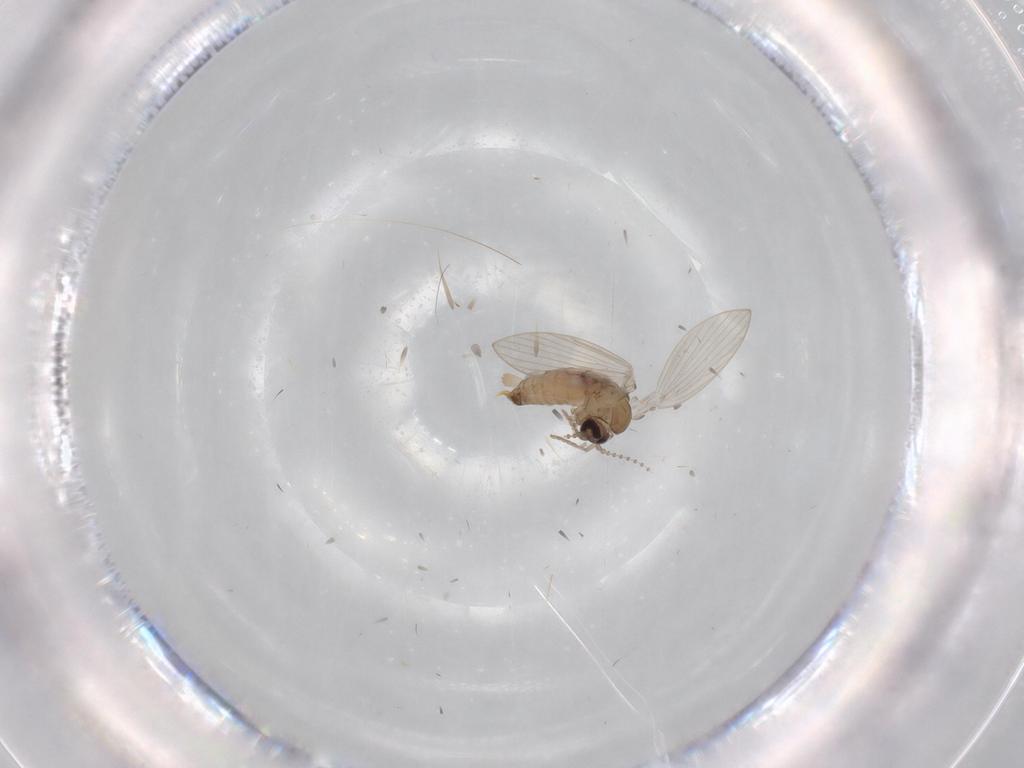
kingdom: Animalia
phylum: Arthropoda
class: Insecta
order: Diptera
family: Psychodidae
